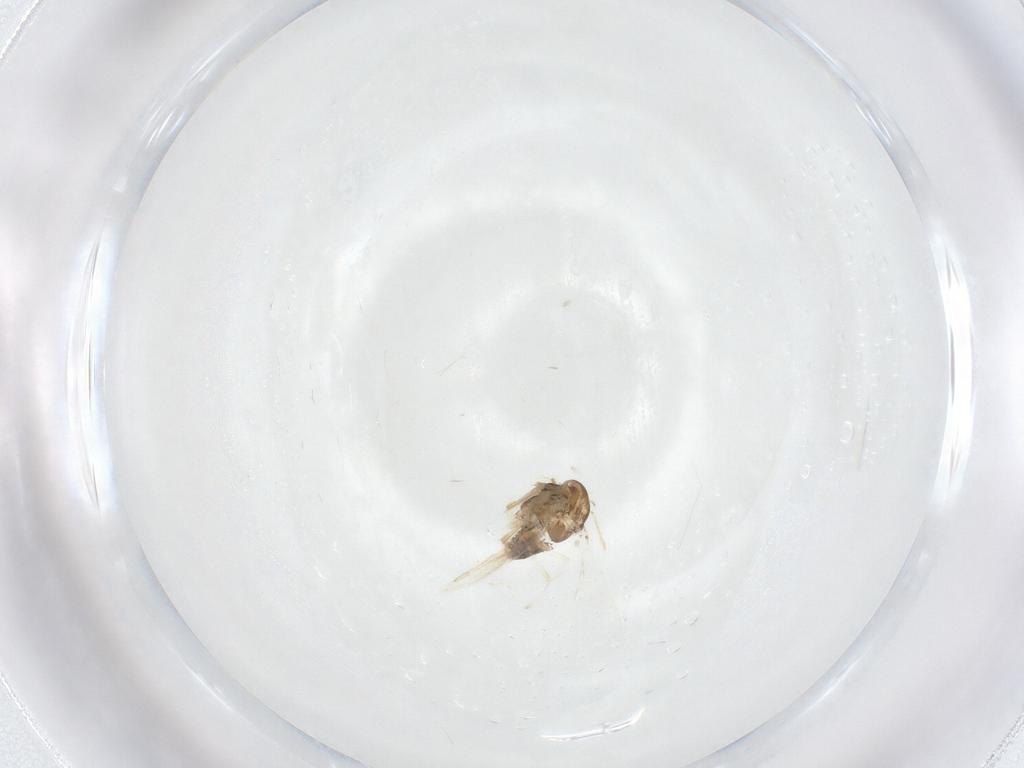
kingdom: Animalia
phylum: Arthropoda
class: Insecta
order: Diptera
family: Chironomidae
